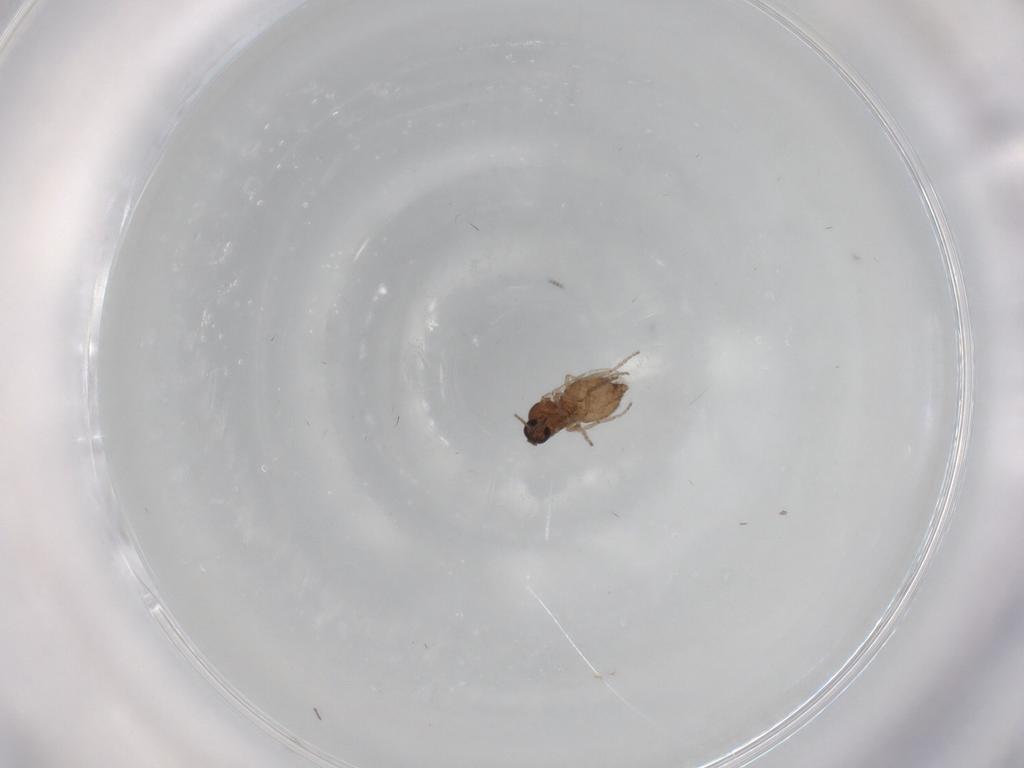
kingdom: Animalia
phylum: Arthropoda
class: Insecta
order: Diptera
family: Ceratopogonidae
